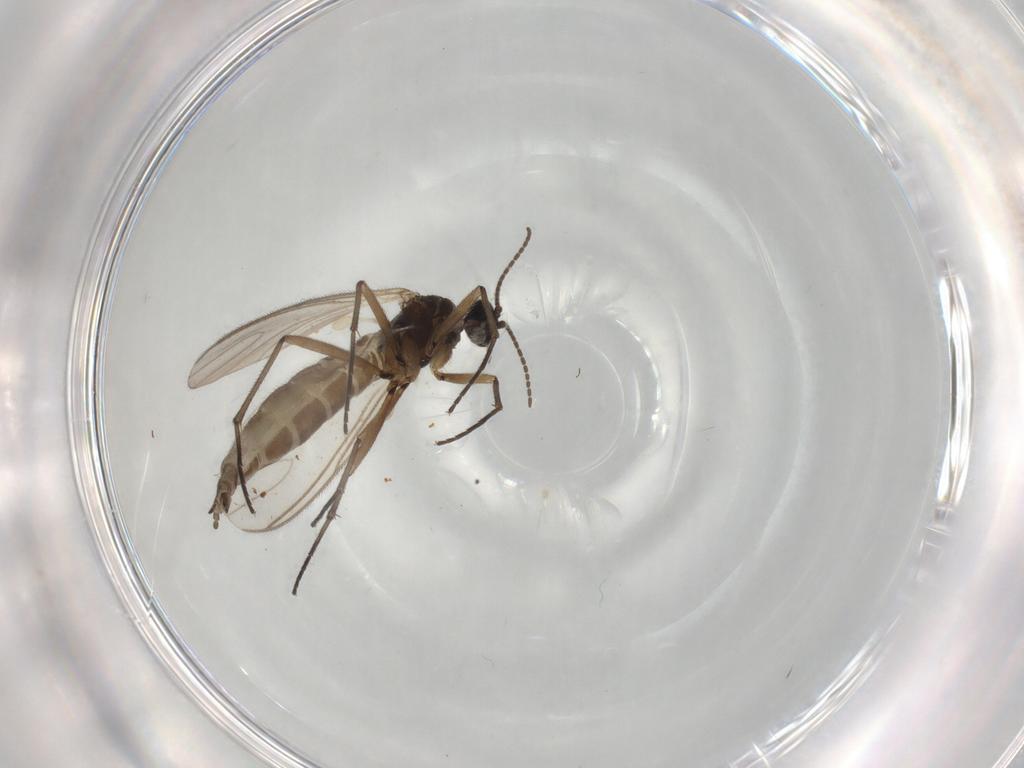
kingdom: Animalia
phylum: Arthropoda
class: Insecta
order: Diptera
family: Sciaridae
